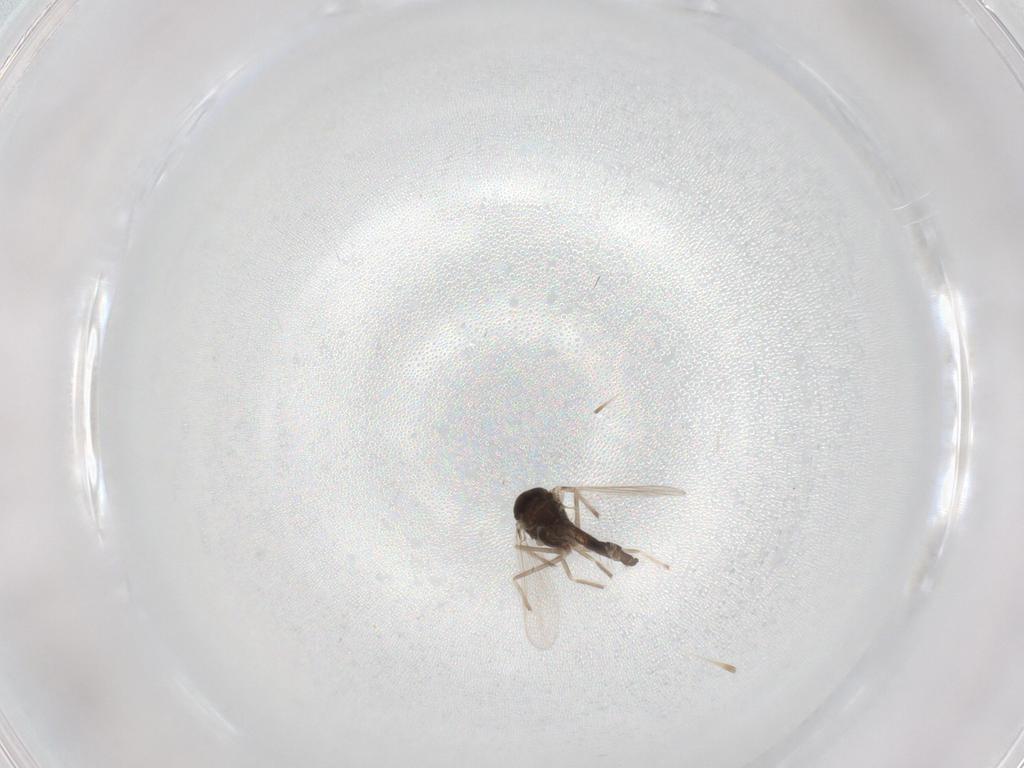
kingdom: Animalia
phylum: Arthropoda
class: Insecta
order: Diptera
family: Chironomidae
